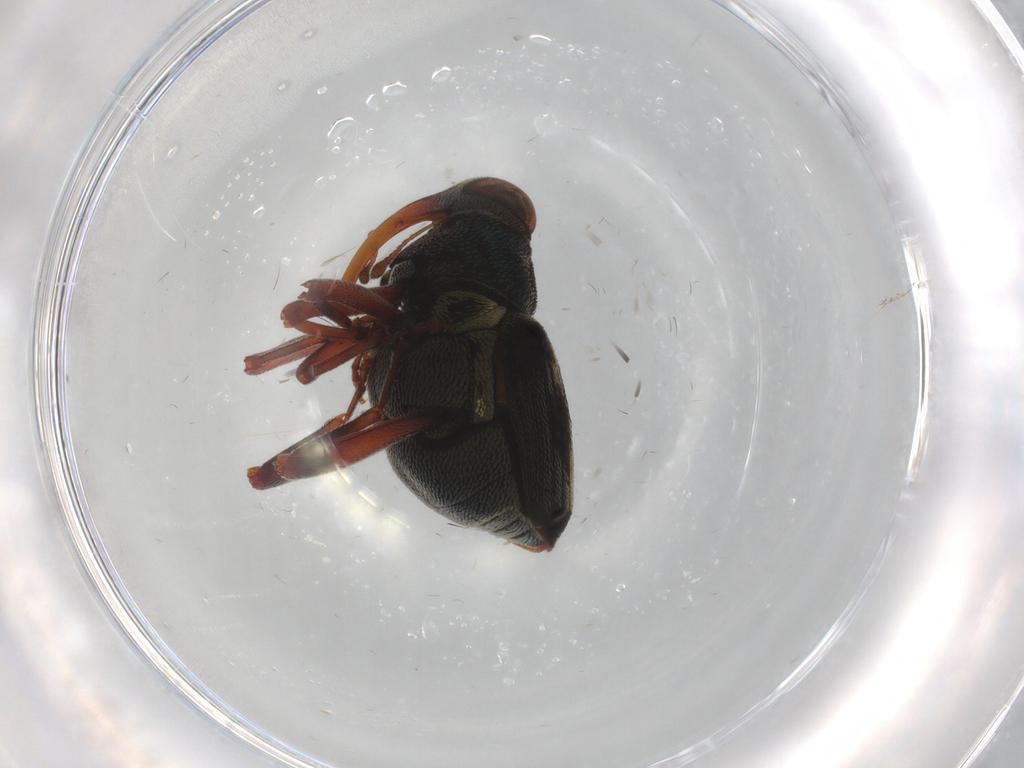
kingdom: Animalia
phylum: Arthropoda
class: Insecta
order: Coleoptera
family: Curculionidae
